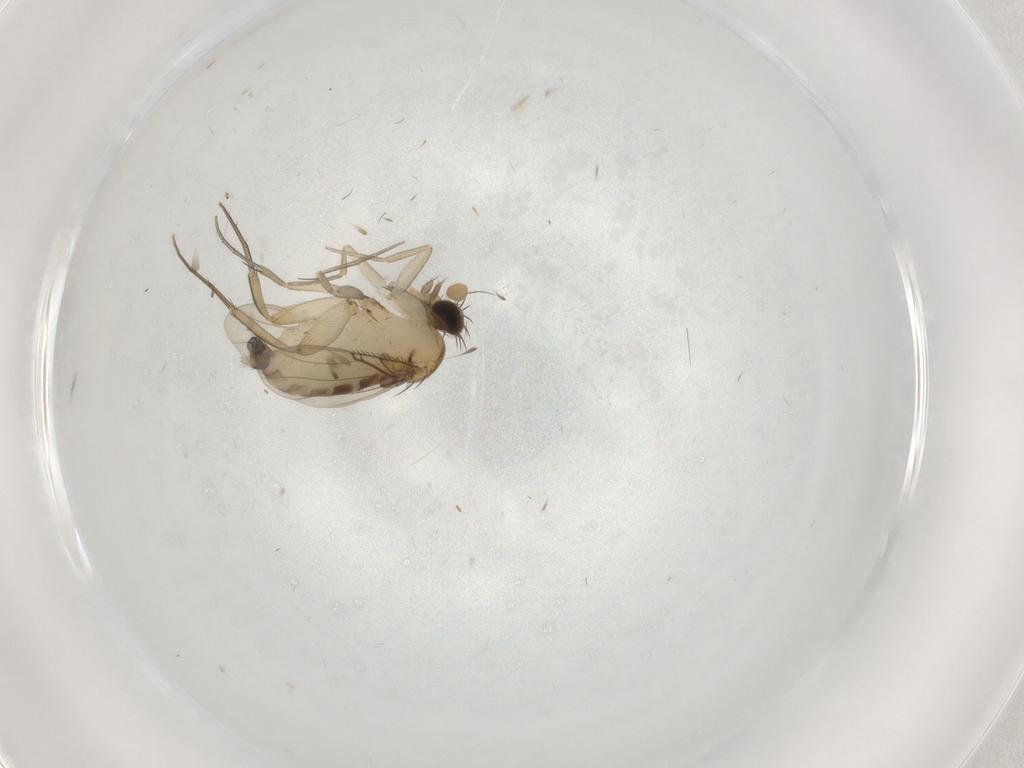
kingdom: Animalia
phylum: Arthropoda
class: Insecta
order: Diptera
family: Phoridae
